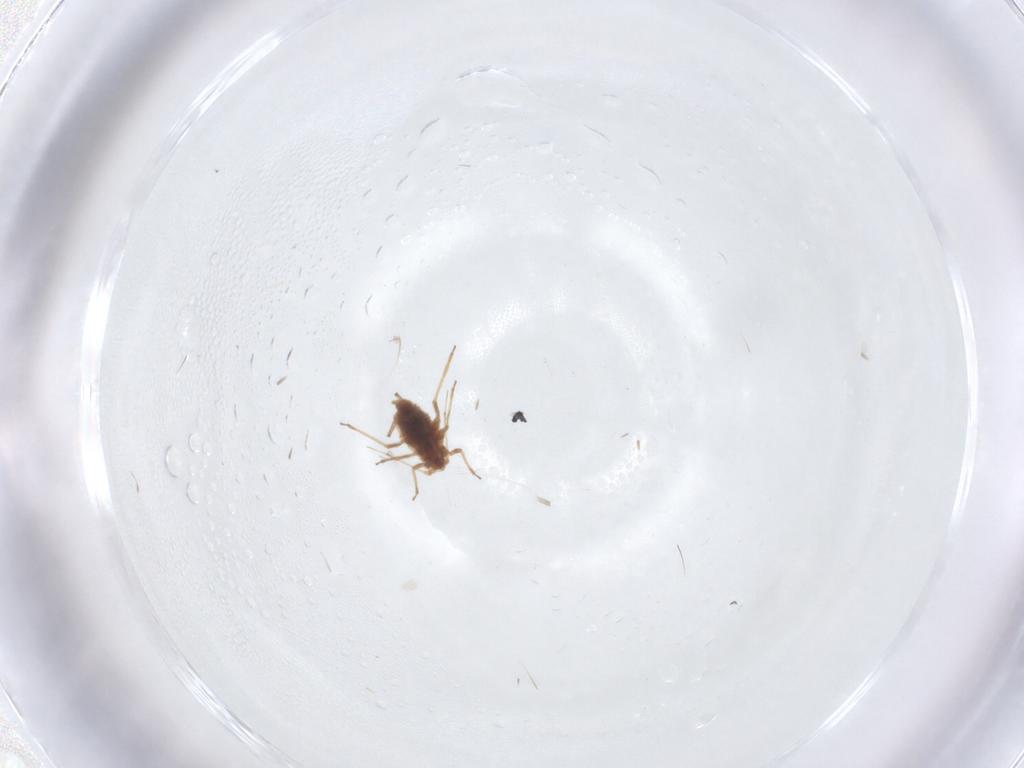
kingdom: Animalia
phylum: Arthropoda
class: Insecta
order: Hemiptera
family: Aphididae
